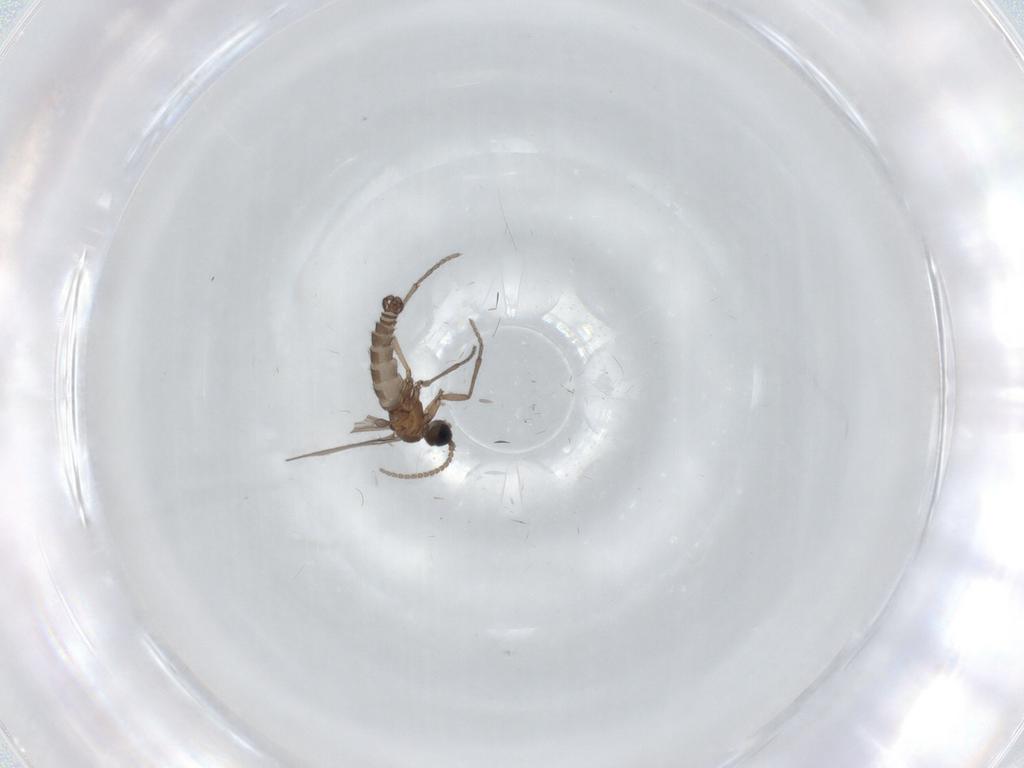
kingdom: Animalia
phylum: Arthropoda
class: Insecta
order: Diptera
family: Sciaridae
